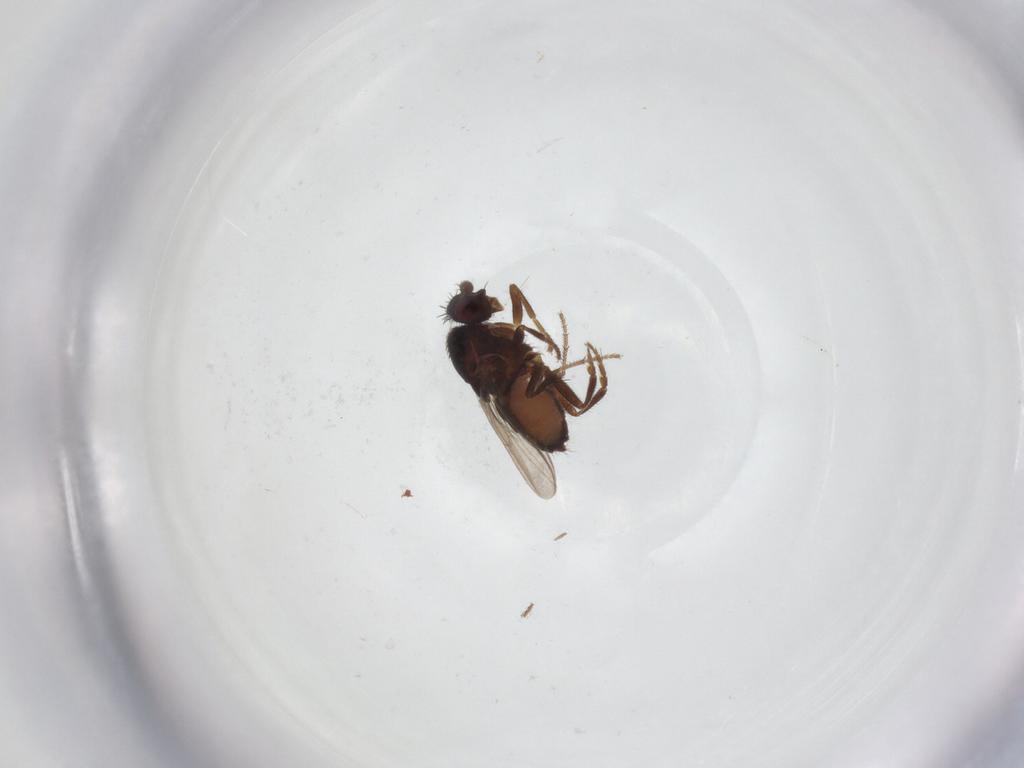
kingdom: Animalia
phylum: Arthropoda
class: Insecta
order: Diptera
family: Sphaeroceridae
